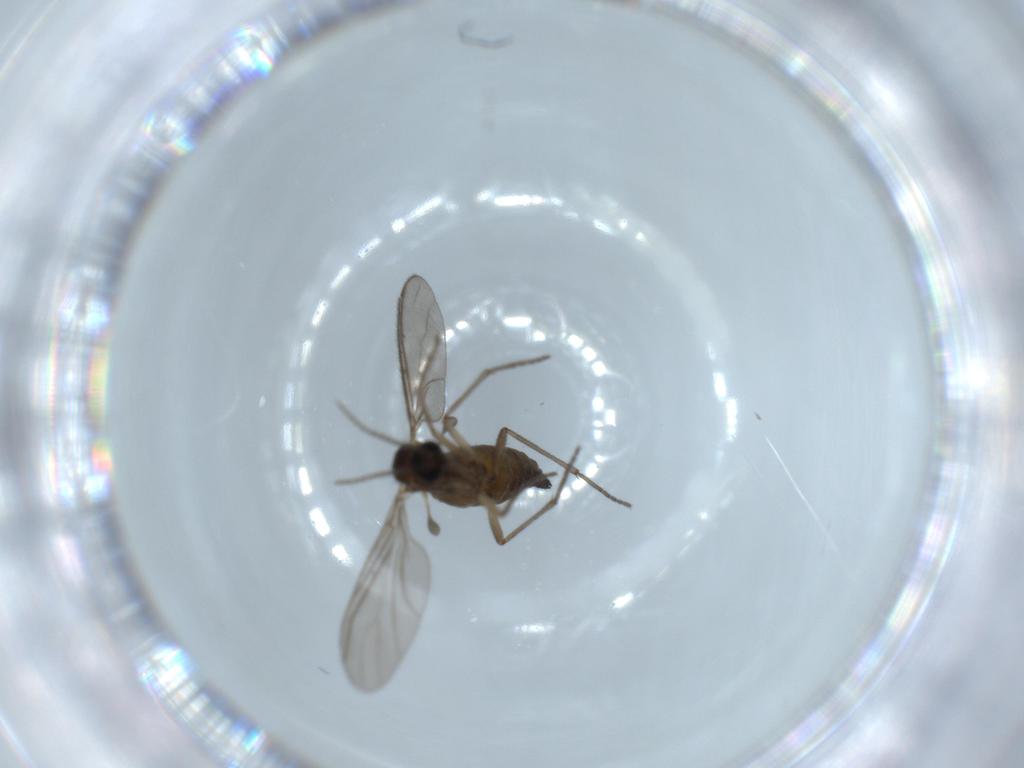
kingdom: Animalia
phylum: Arthropoda
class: Insecta
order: Diptera
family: Sciaridae
